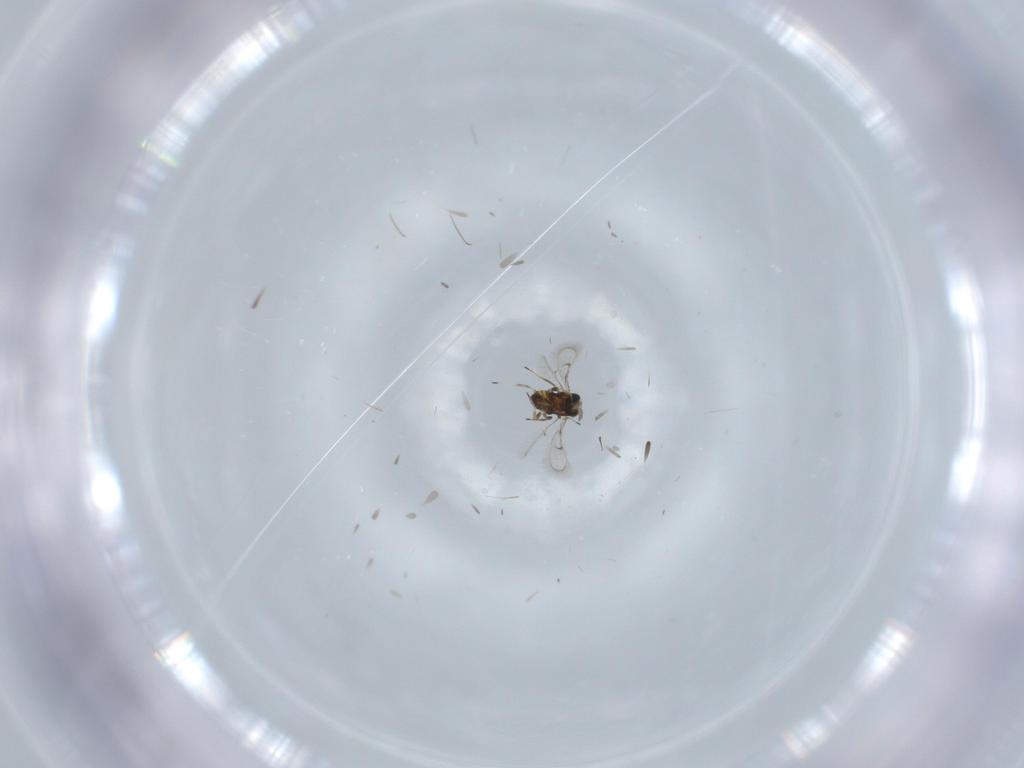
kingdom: Animalia
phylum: Arthropoda
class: Insecta
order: Hymenoptera
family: Trichogrammatidae
